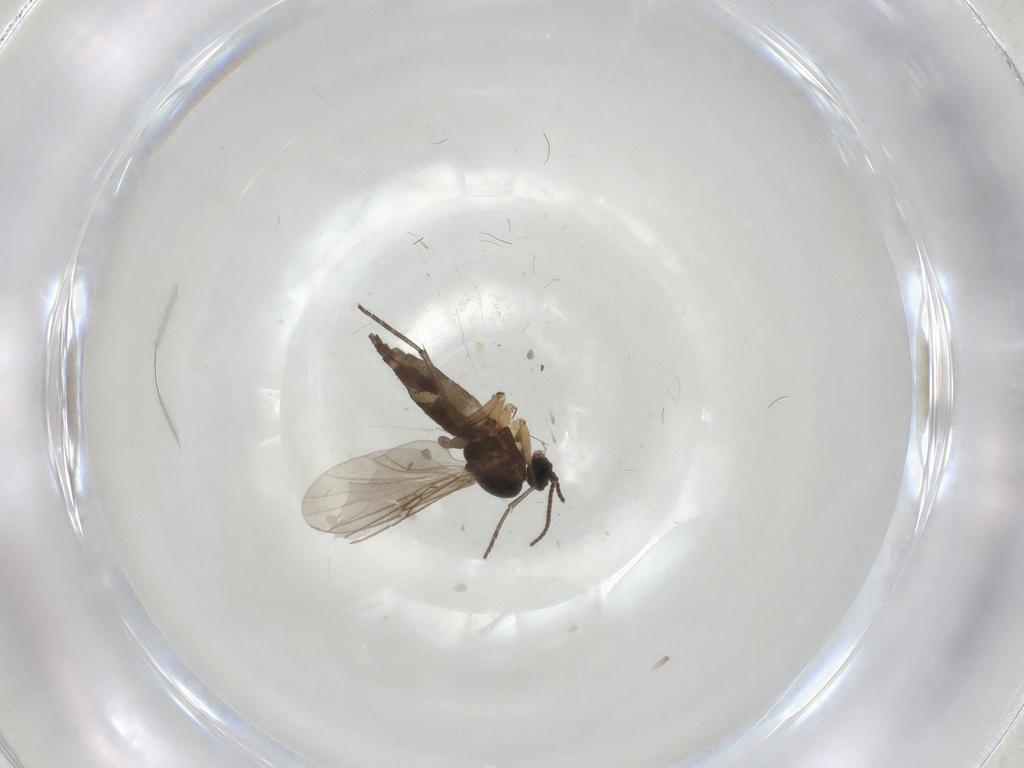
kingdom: Animalia
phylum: Arthropoda
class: Insecta
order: Diptera
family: Sciaridae
